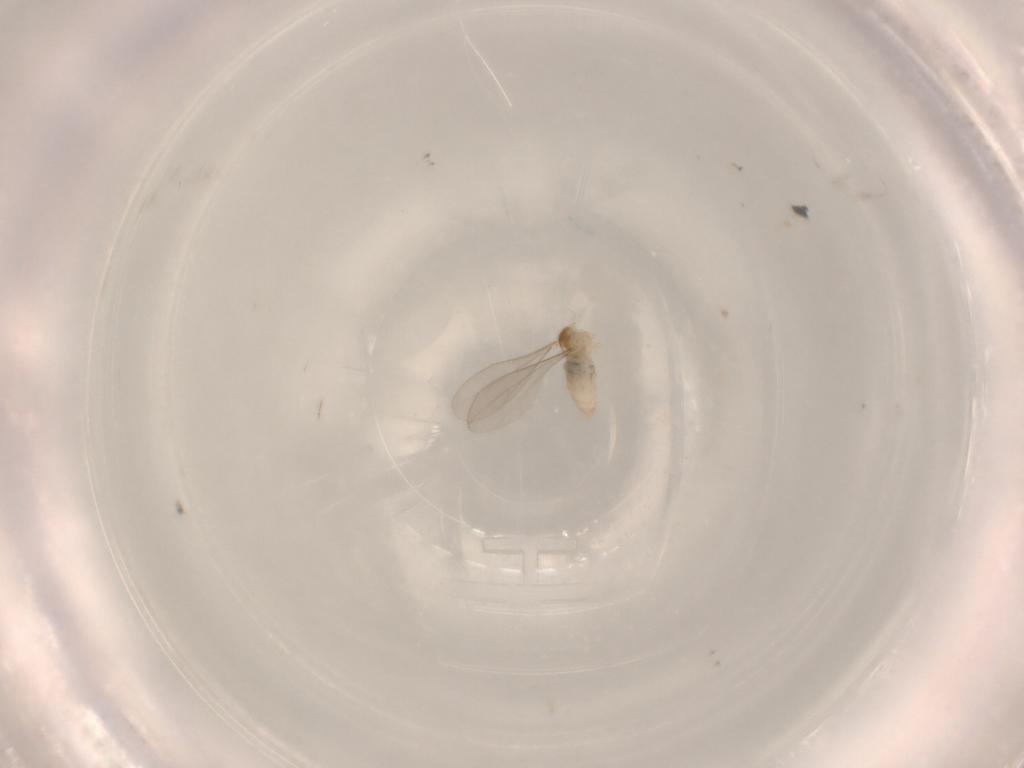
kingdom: Animalia
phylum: Arthropoda
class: Insecta
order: Diptera
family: Cecidomyiidae
